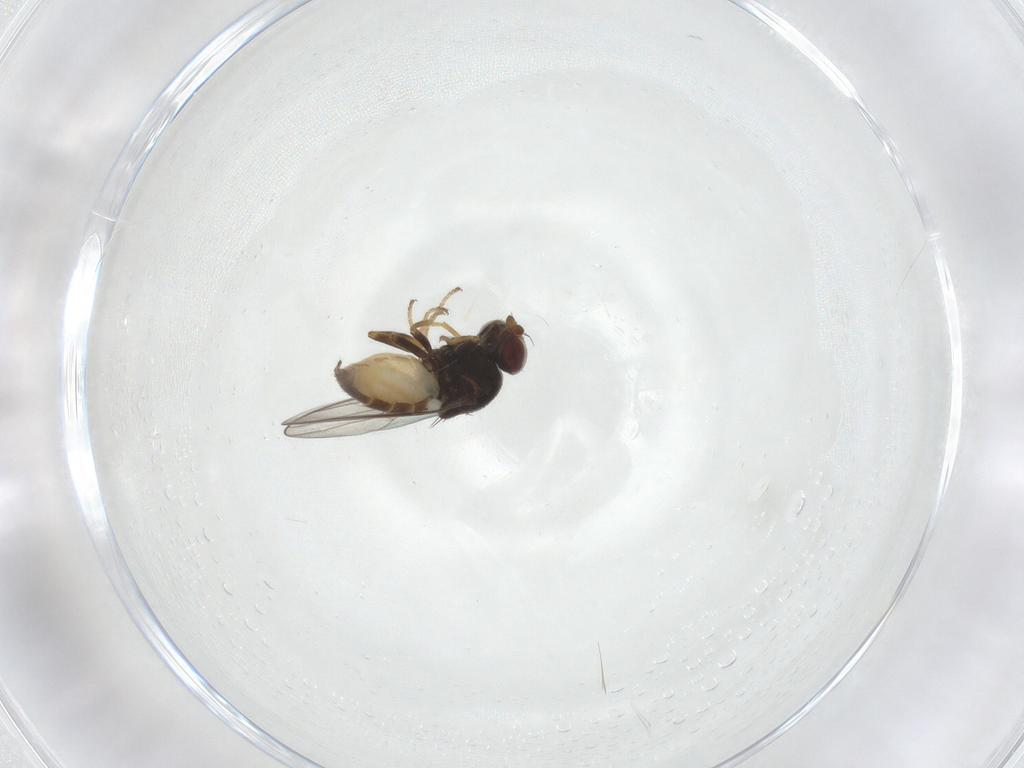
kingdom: Animalia
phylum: Arthropoda
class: Insecta
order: Diptera
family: Chloropidae
